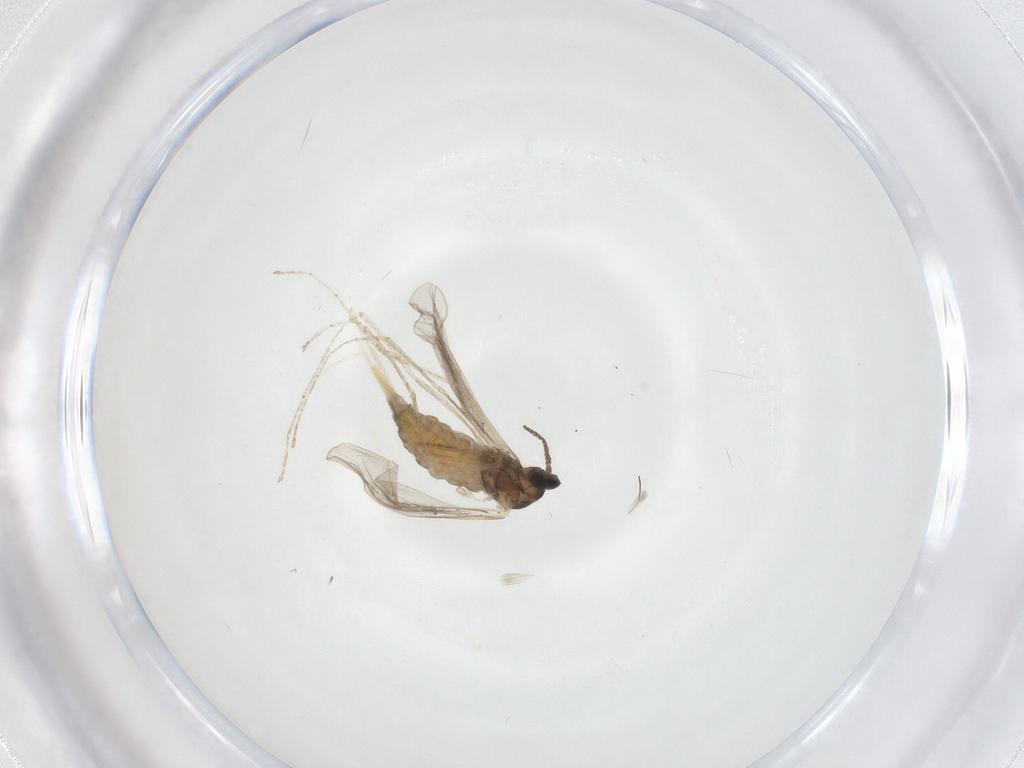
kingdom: Animalia
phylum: Arthropoda
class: Insecta
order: Diptera
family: Cecidomyiidae
